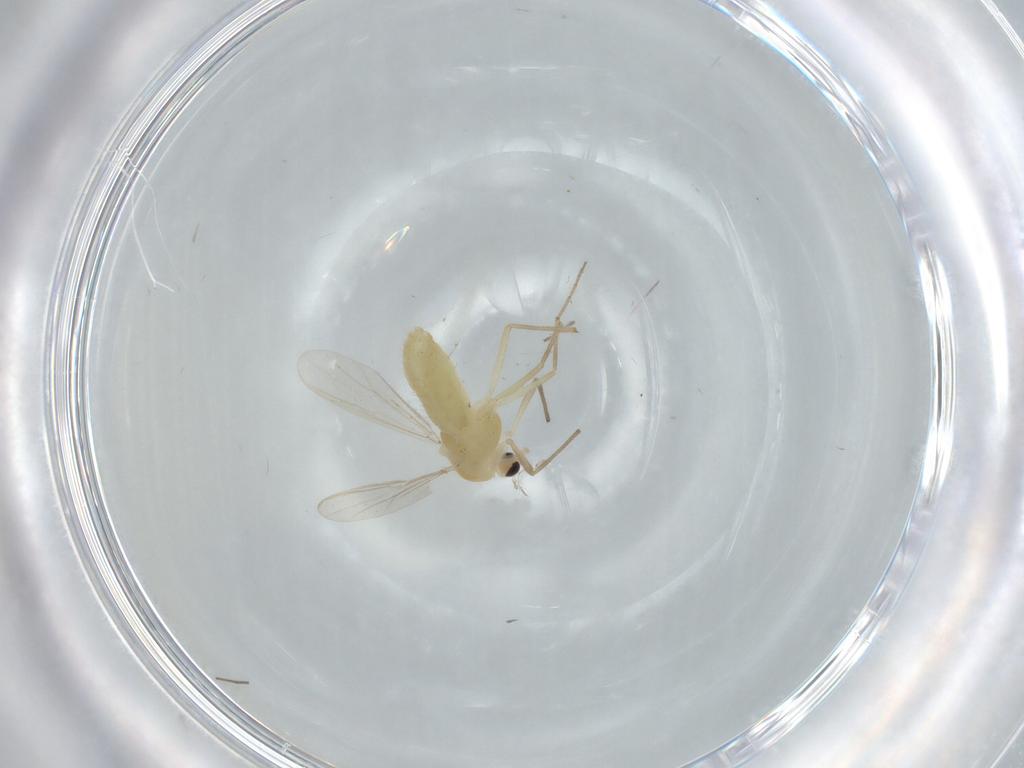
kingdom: Animalia
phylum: Arthropoda
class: Insecta
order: Diptera
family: Chironomidae
